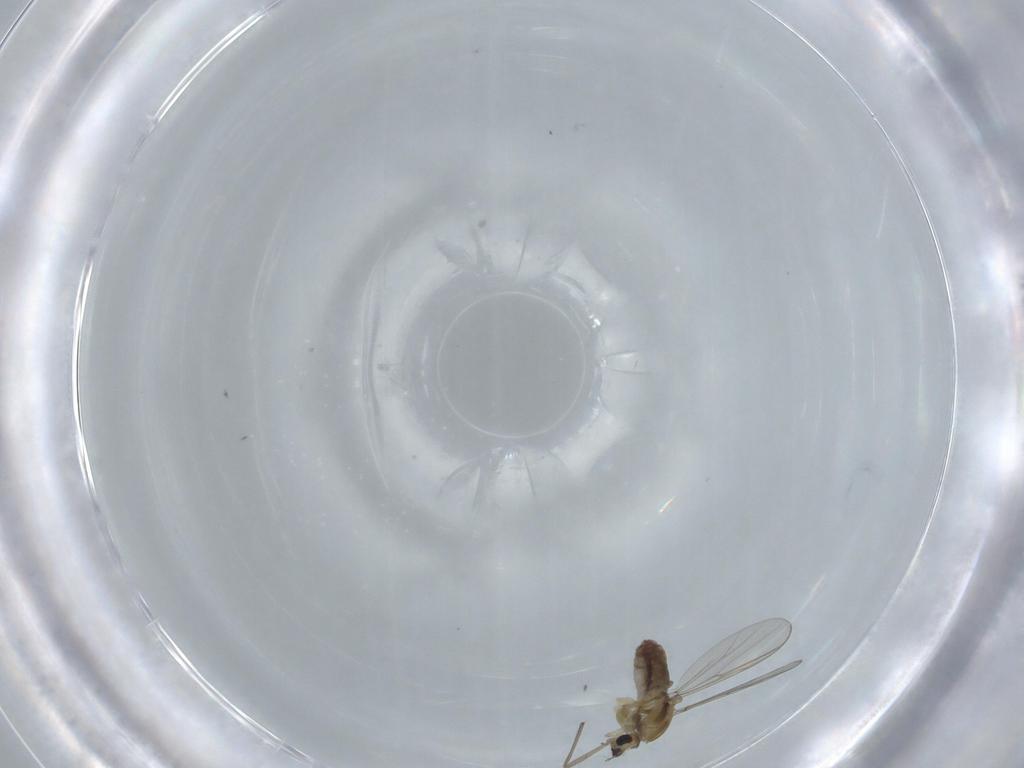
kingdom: Animalia
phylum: Arthropoda
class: Insecta
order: Diptera
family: Chironomidae
